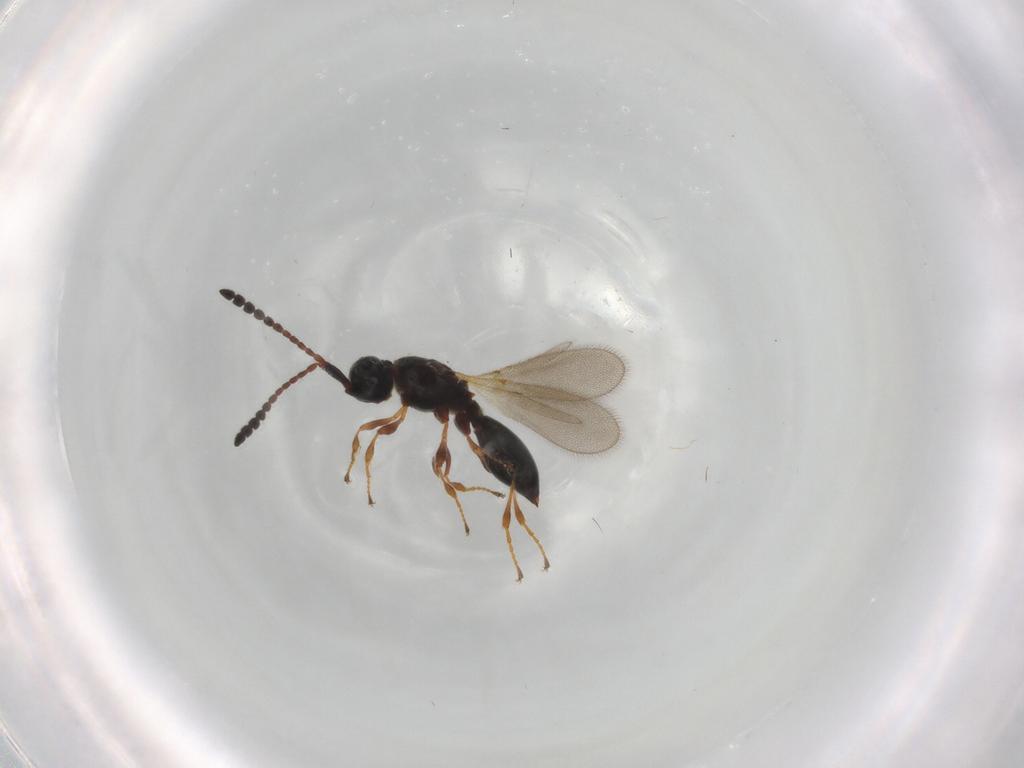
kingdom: Animalia
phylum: Arthropoda
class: Insecta
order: Hymenoptera
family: Diapriidae
